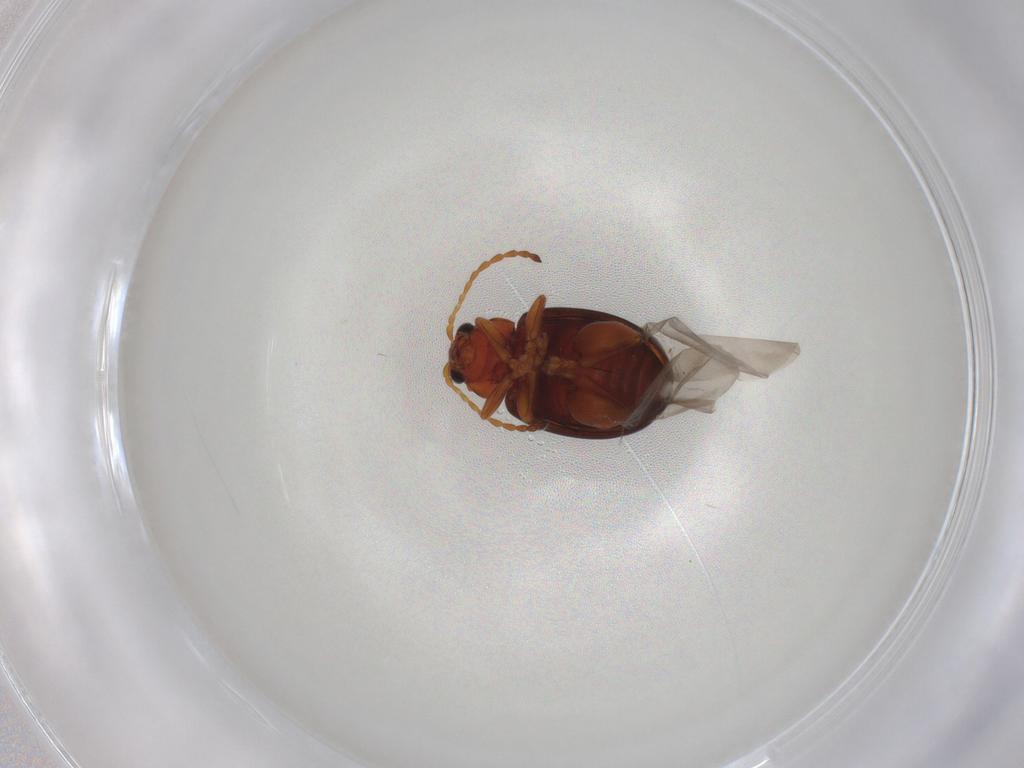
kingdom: Animalia
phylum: Arthropoda
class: Insecta
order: Coleoptera
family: Chrysomelidae
